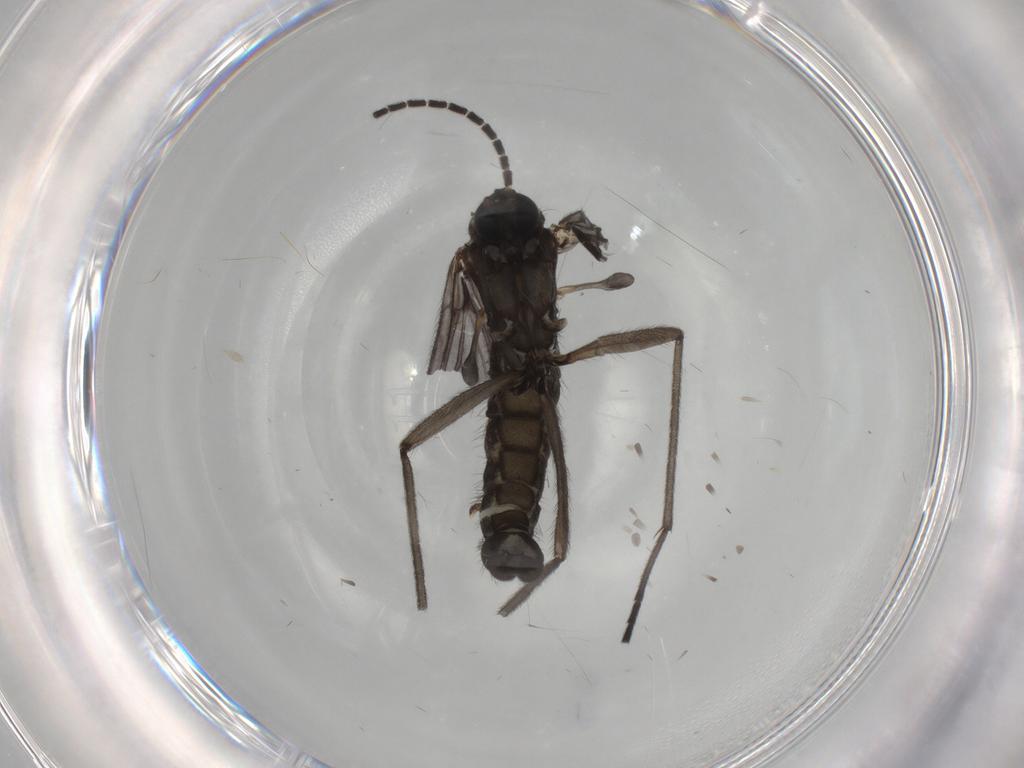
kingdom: Animalia
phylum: Arthropoda
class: Insecta
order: Diptera
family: Sciaridae
